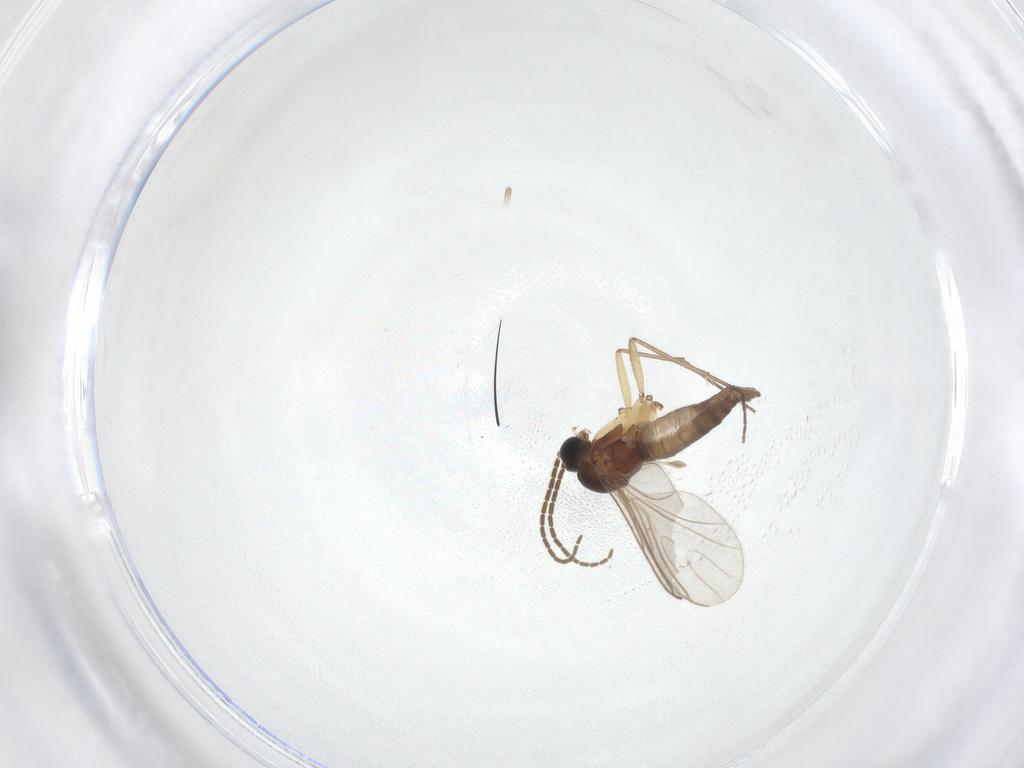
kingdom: Animalia
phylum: Arthropoda
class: Insecta
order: Diptera
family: Sciaridae
